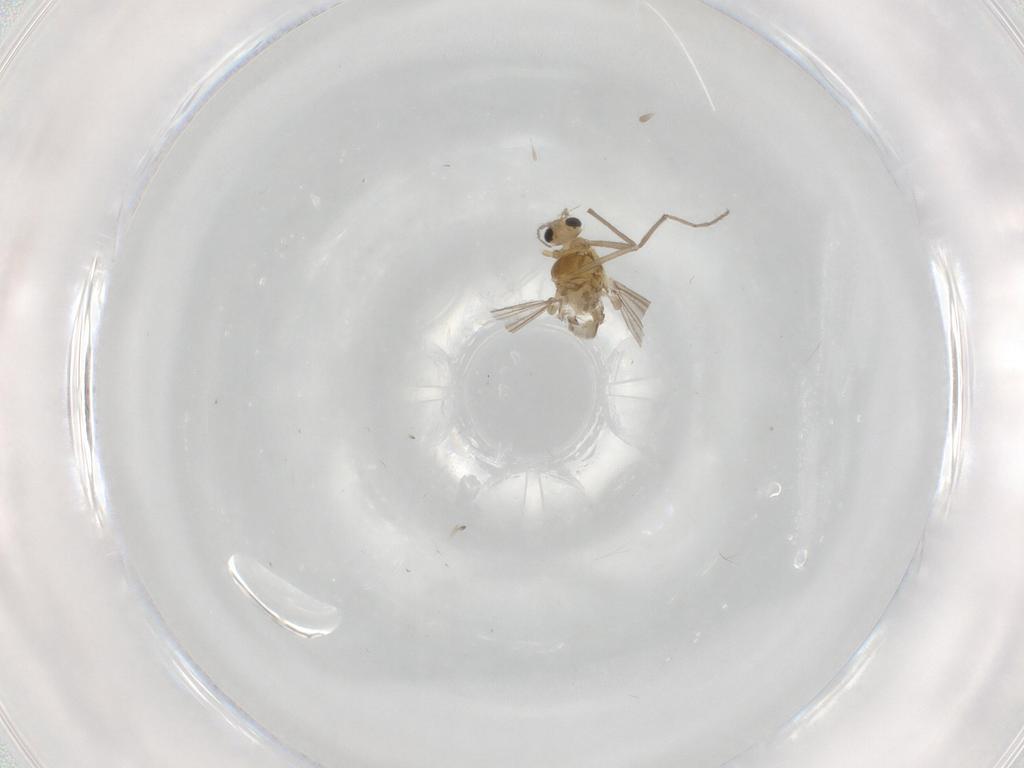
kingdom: Animalia
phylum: Arthropoda
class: Insecta
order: Diptera
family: Chironomidae
